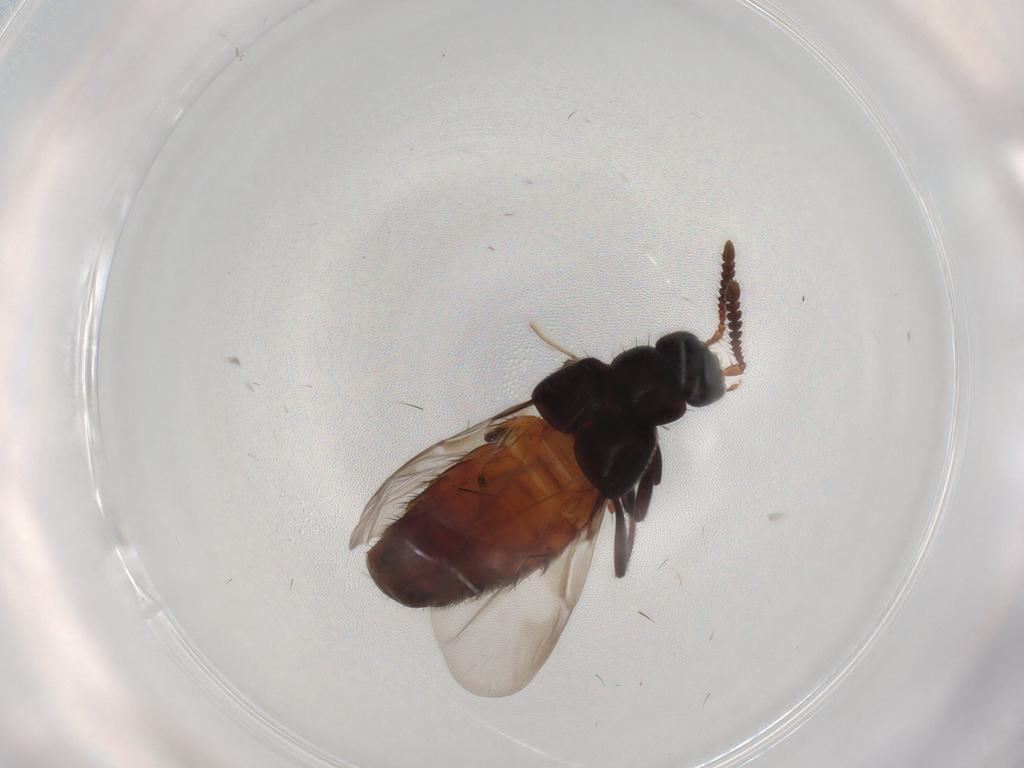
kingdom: Animalia
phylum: Arthropoda
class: Insecta
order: Coleoptera
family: Staphylinidae
